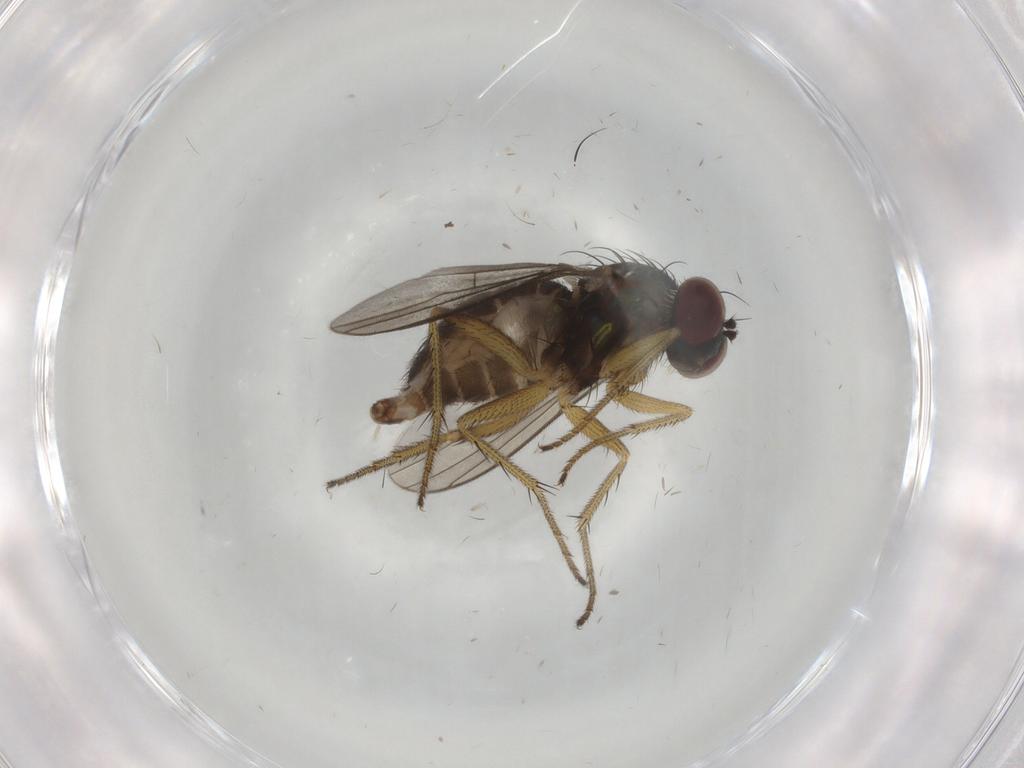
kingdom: Animalia
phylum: Arthropoda
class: Insecta
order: Diptera
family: Dolichopodidae
